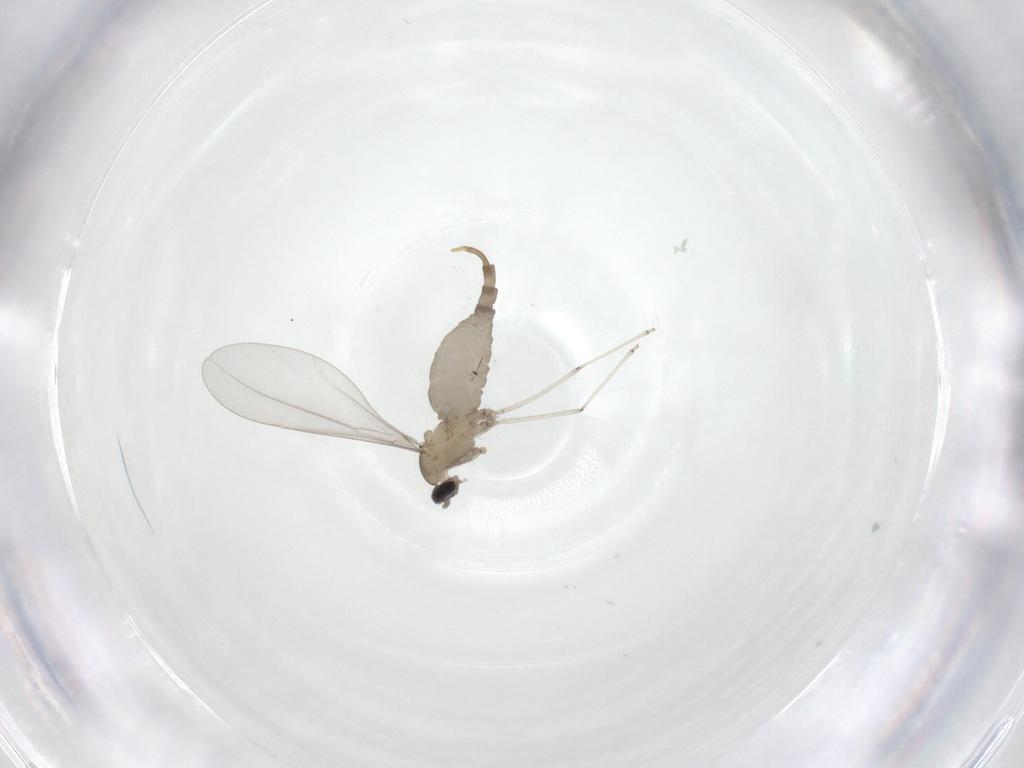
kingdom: Animalia
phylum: Arthropoda
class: Insecta
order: Diptera
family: Cecidomyiidae
